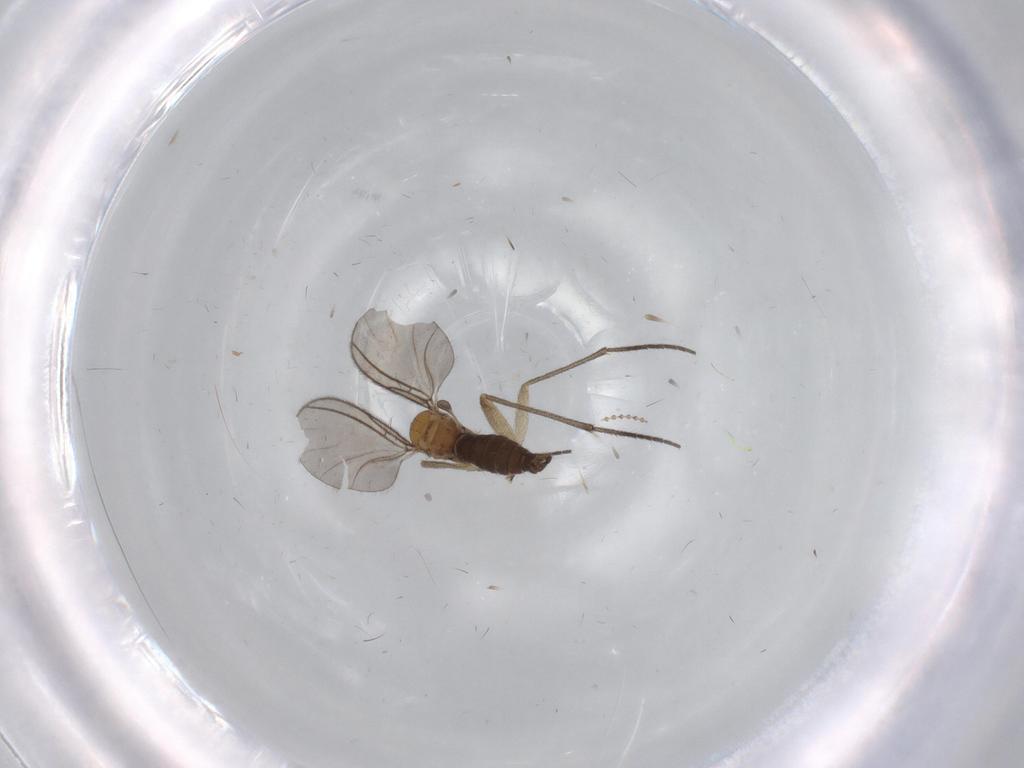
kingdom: Animalia
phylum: Arthropoda
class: Insecta
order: Diptera
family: Sciaridae
